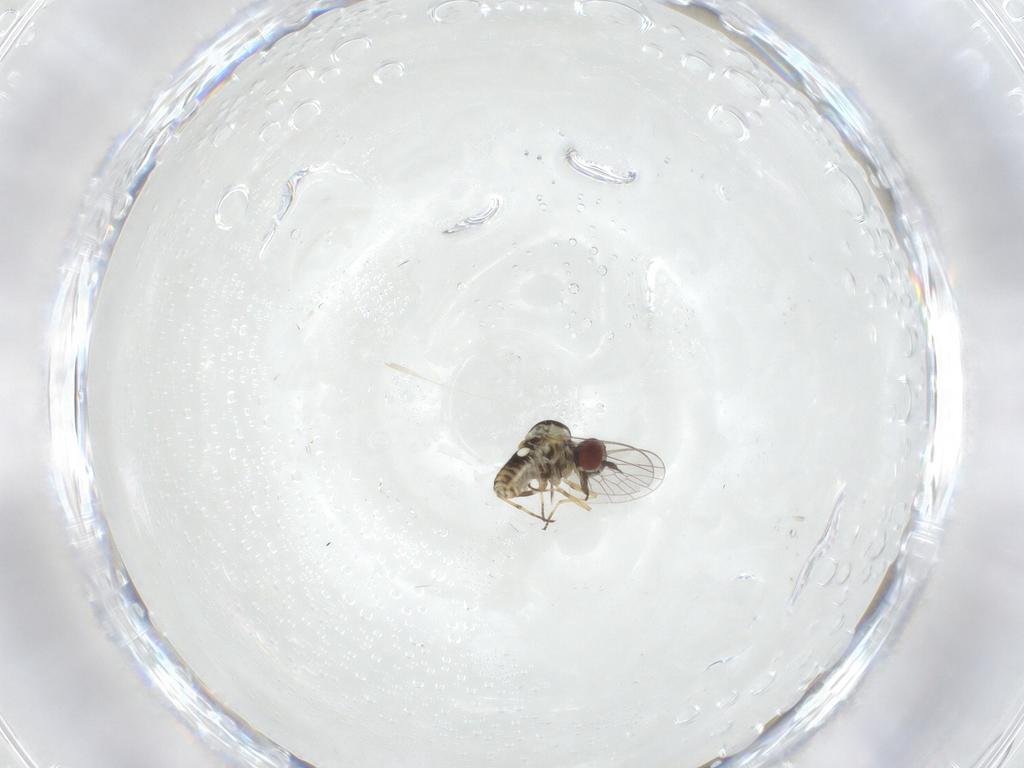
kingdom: Animalia
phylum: Arthropoda
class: Insecta
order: Diptera
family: Mythicomyiidae
